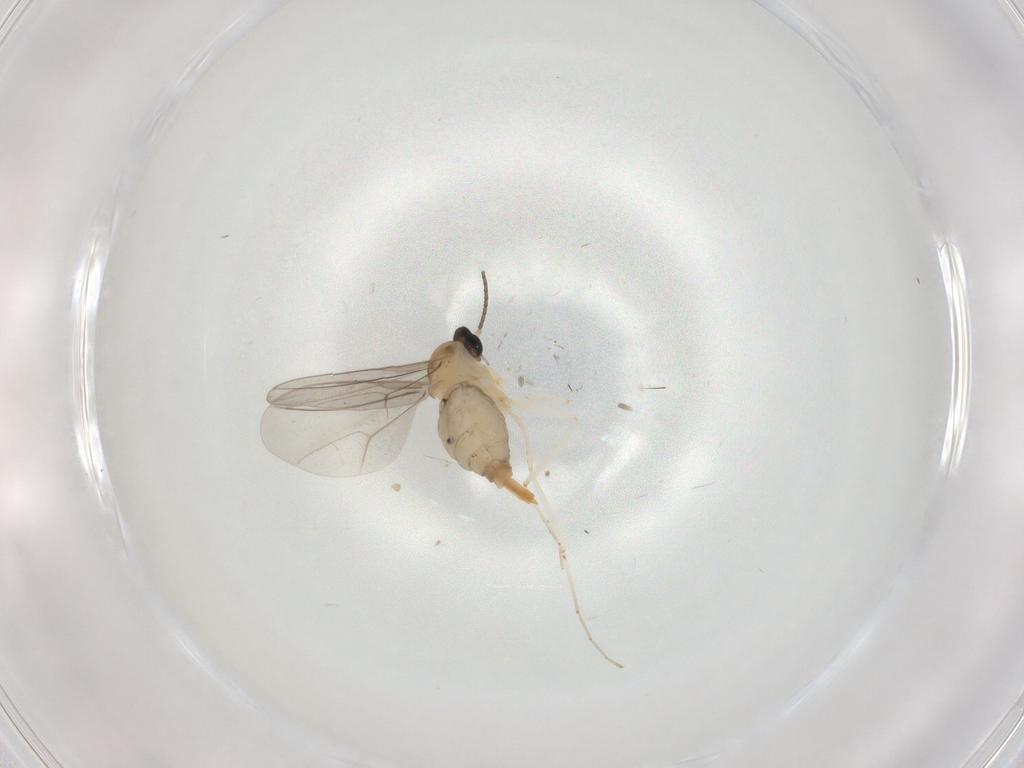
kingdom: Animalia
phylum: Arthropoda
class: Insecta
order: Diptera
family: Cecidomyiidae
